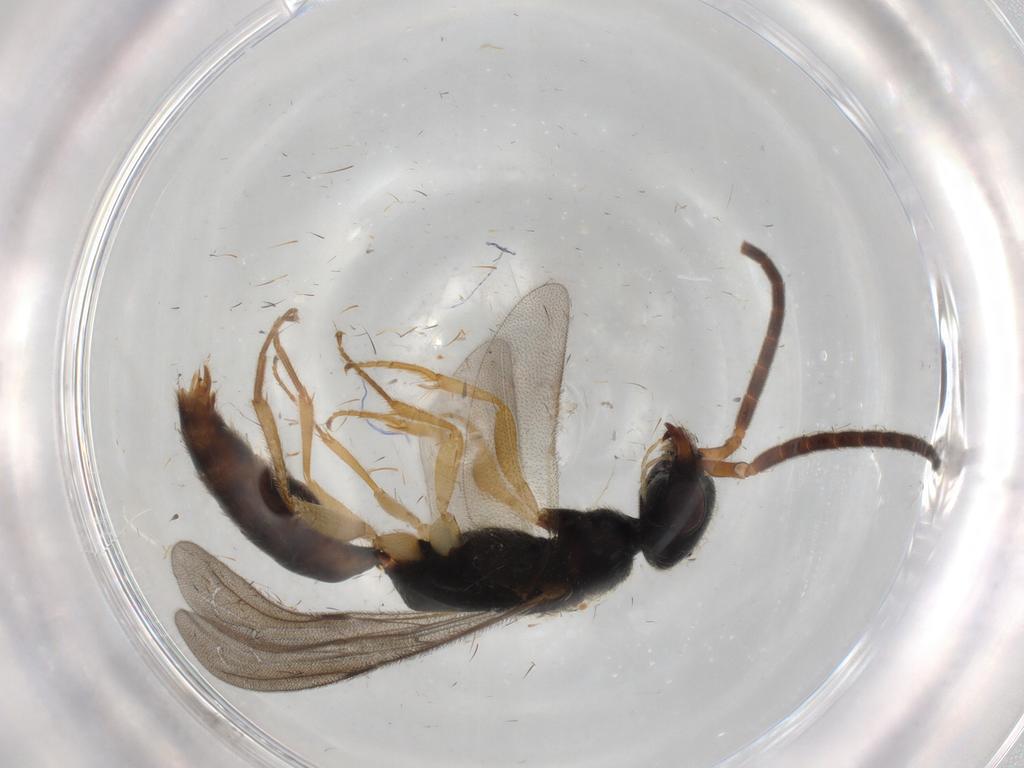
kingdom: Animalia
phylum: Arthropoda
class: Insecta
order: Hymenoptera
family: Bethylidae
